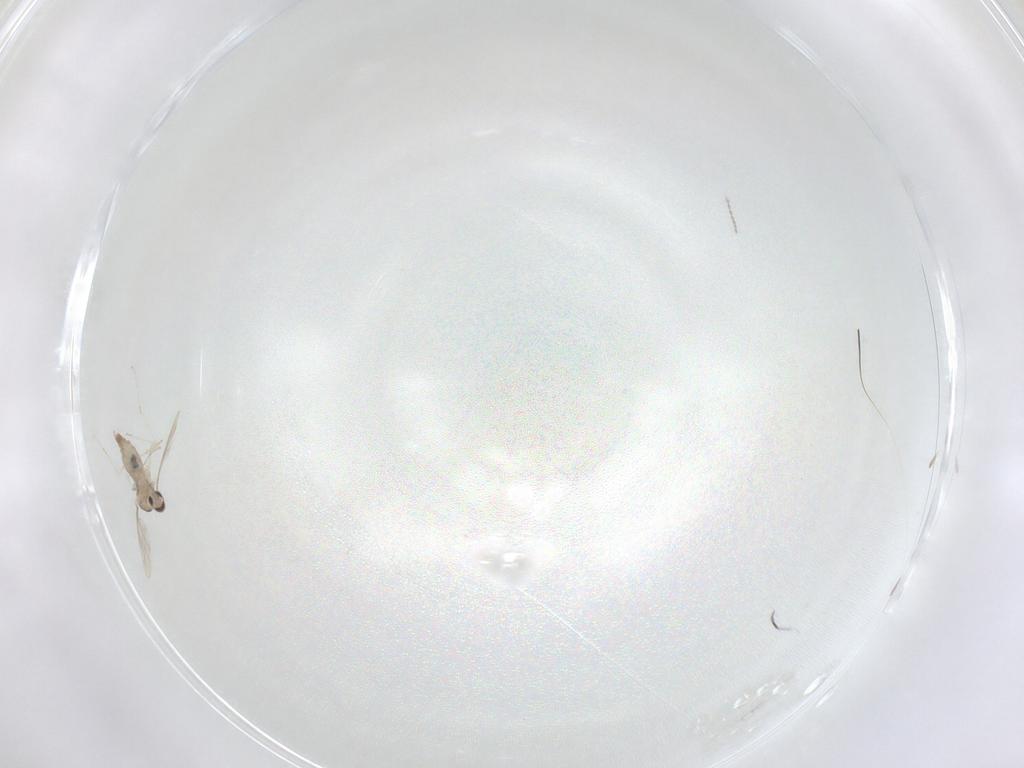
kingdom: Animalia
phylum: Arthropoda
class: Insecta
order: Diptera
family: Cecidomyiidae
